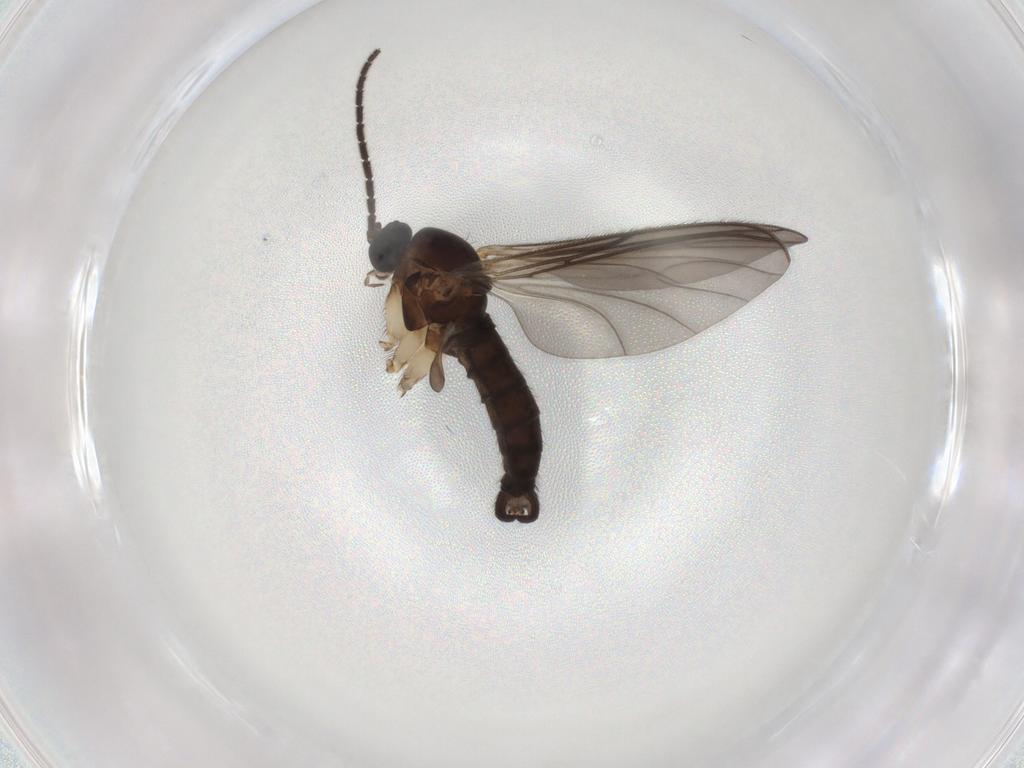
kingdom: Animalia
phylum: Arthropoda
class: Insecta
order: Diptera
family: Sciaridae
